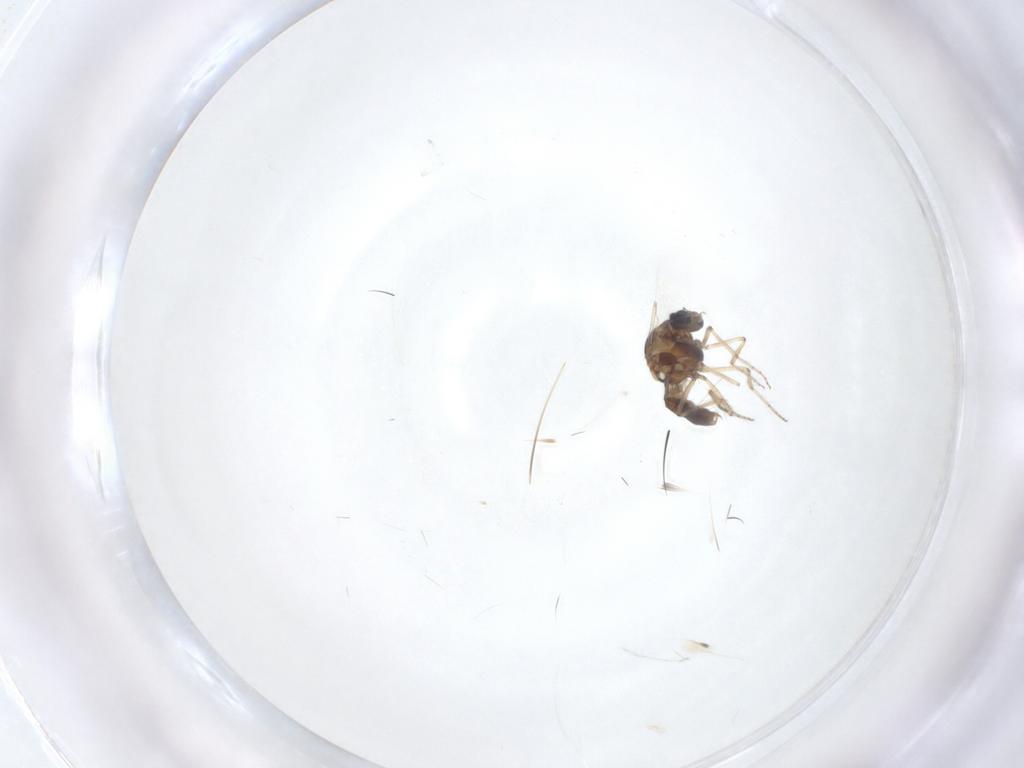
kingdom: Animalia
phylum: Arthropoda
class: Insecta
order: Diptera
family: Ceratopogonidae
